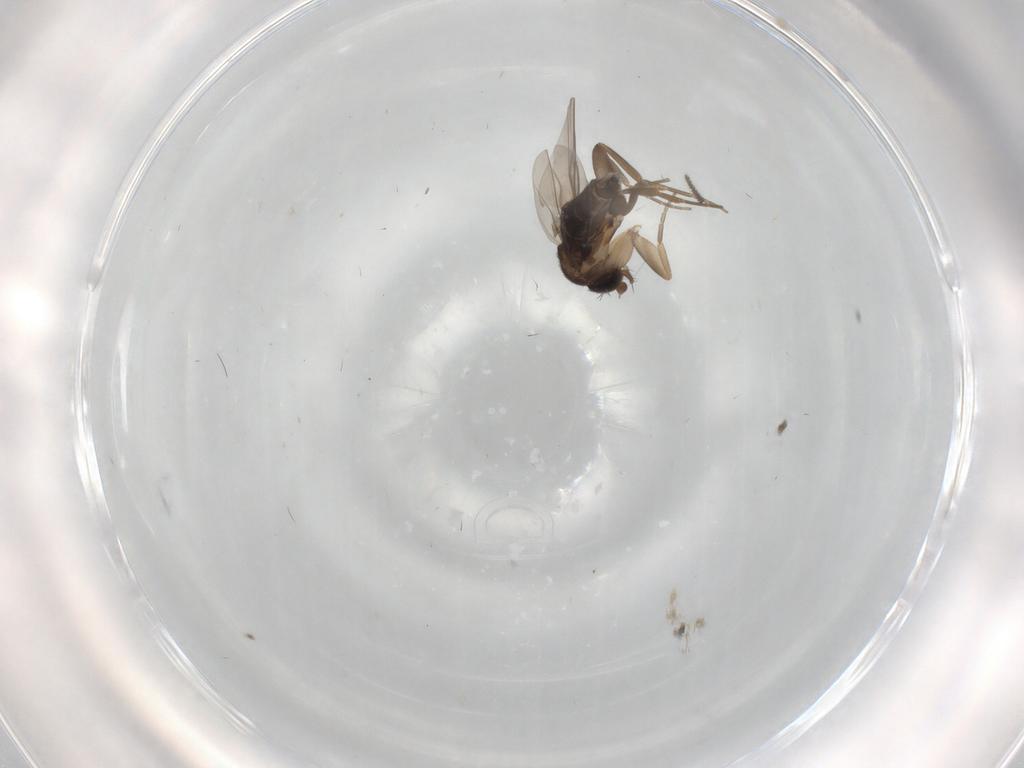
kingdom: Animalia
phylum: Arthropoda
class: Insecta
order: Diptera
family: Phoridae
